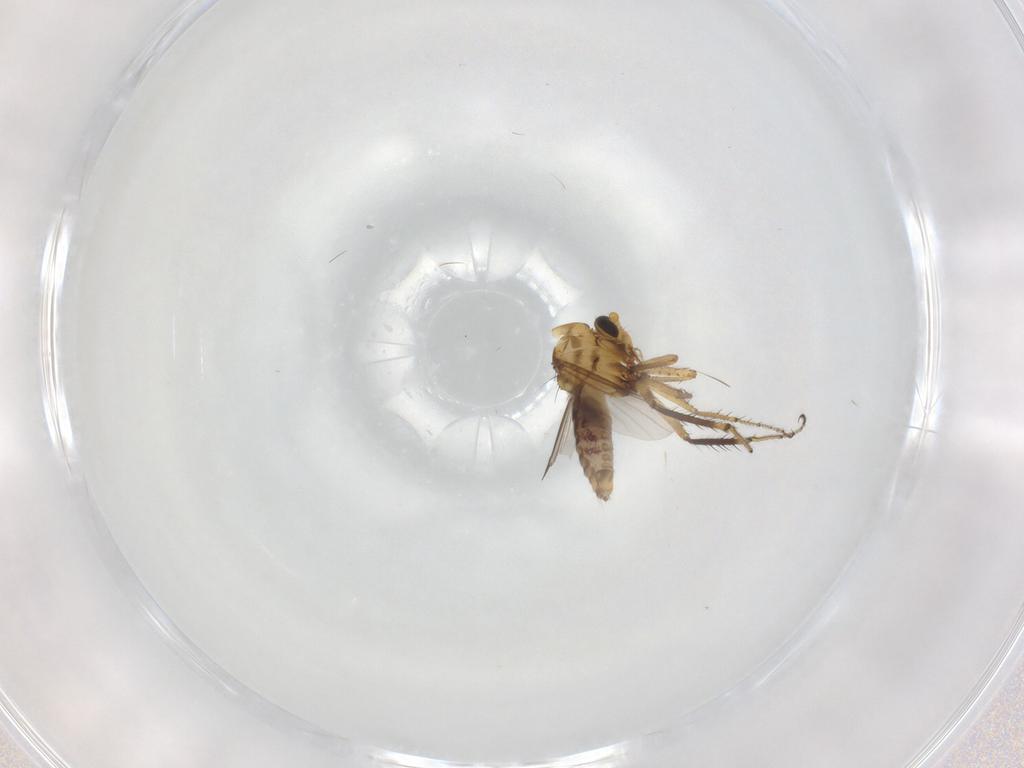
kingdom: Animalia
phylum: Arthropoda
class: Insecta
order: Diptera
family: Ceratopogonidae
